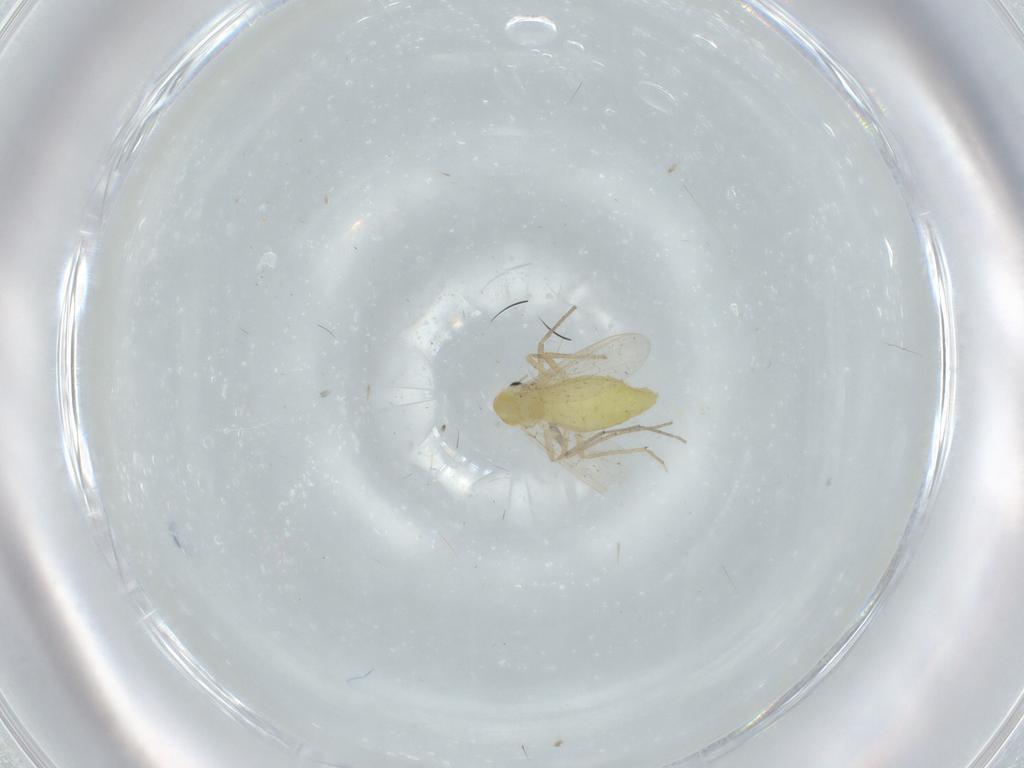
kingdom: Animalia
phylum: Arthropoda
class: Insecta
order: Diptera
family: Chironomidae
